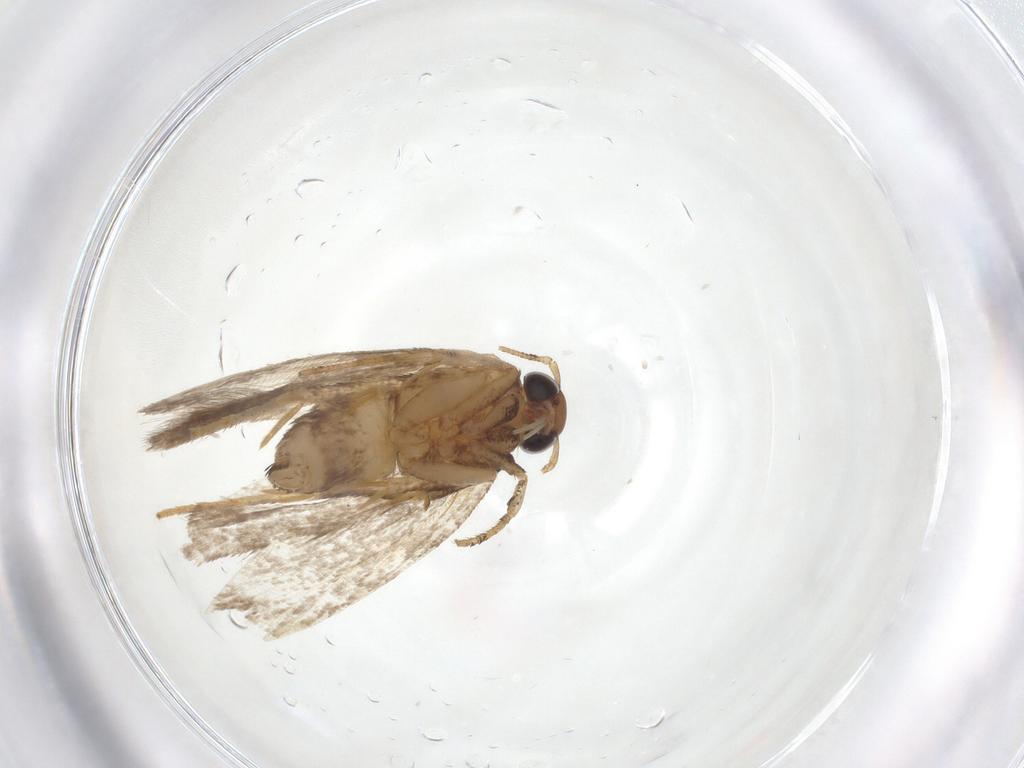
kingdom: Animalia
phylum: Arthropoda
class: Insecta
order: Lepidoptera
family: Gelechiidae
